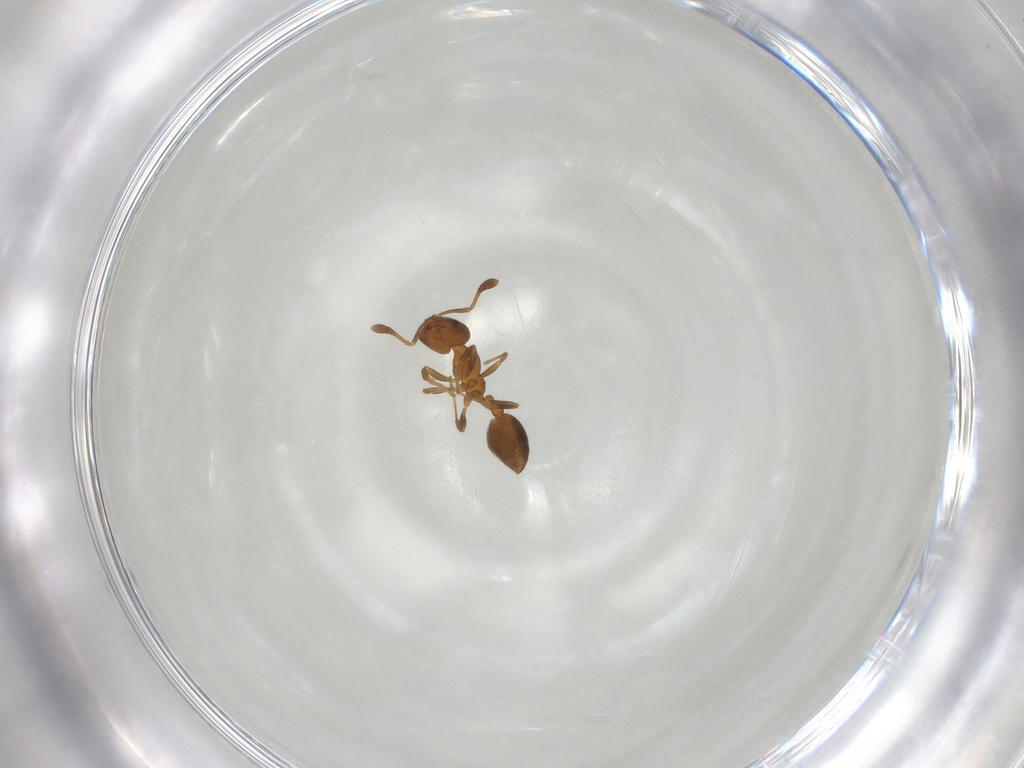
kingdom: Animalia
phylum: Arthropoda
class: Insecta
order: Hymenoptera
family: Formicidae
